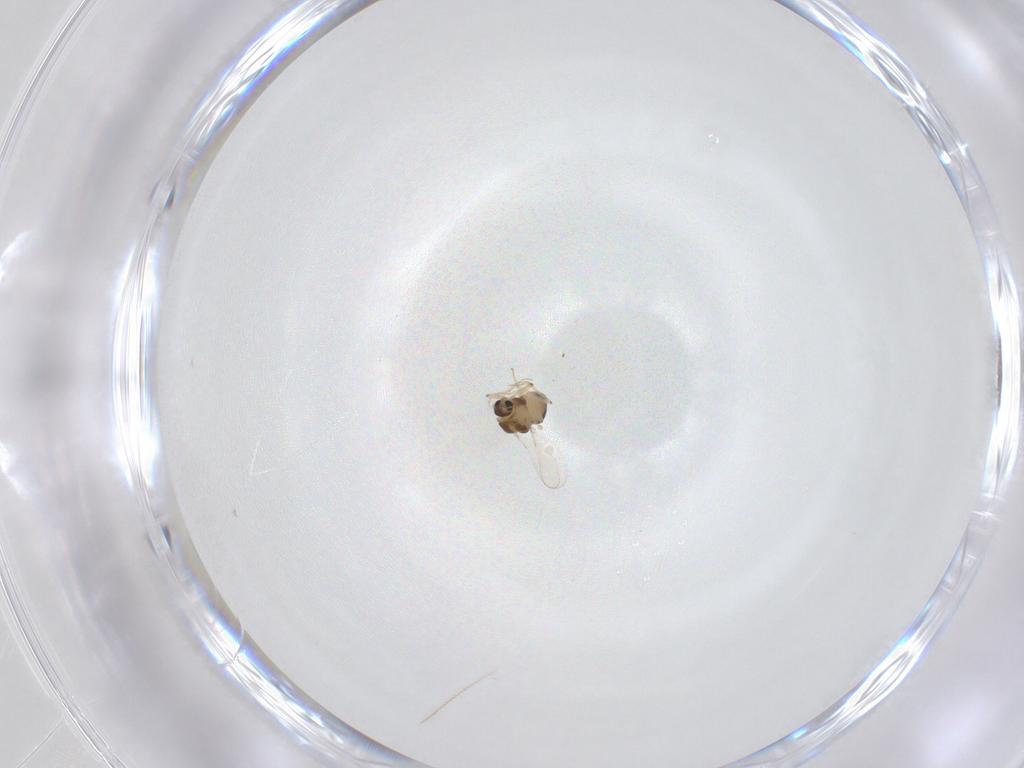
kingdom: Animalia
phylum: Arthropoda
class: Insecta
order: Diptera
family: Chironomidae
